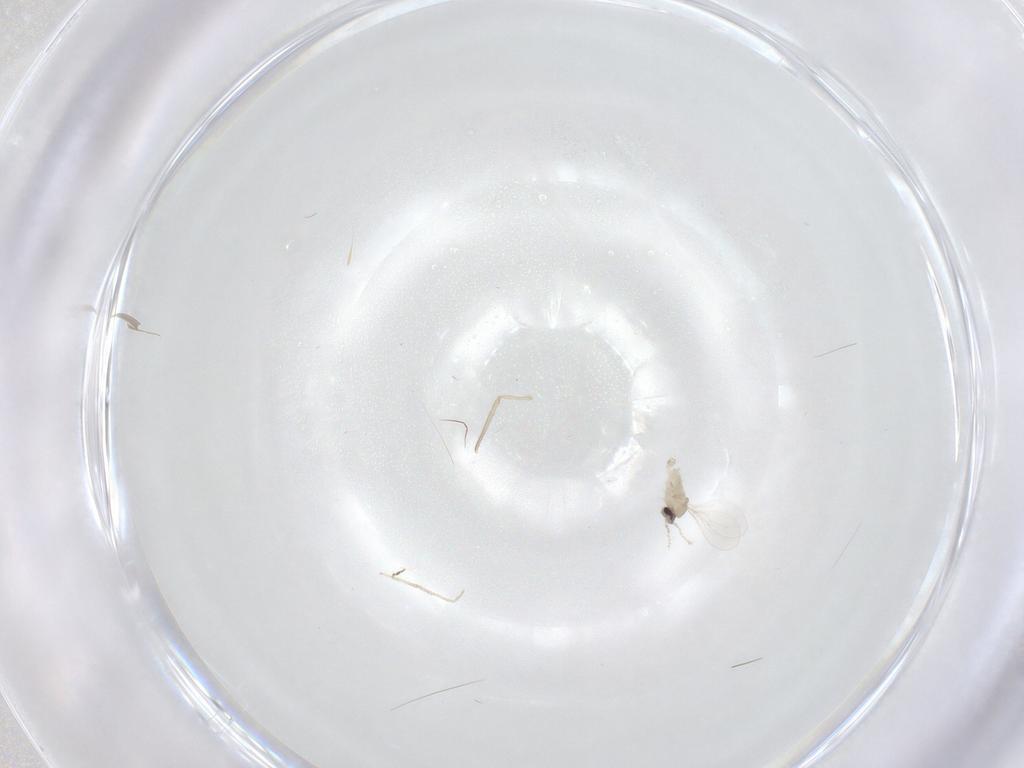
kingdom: Animalia
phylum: Arthropoda
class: Insecta
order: Diptera
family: Cecidomyiidae
